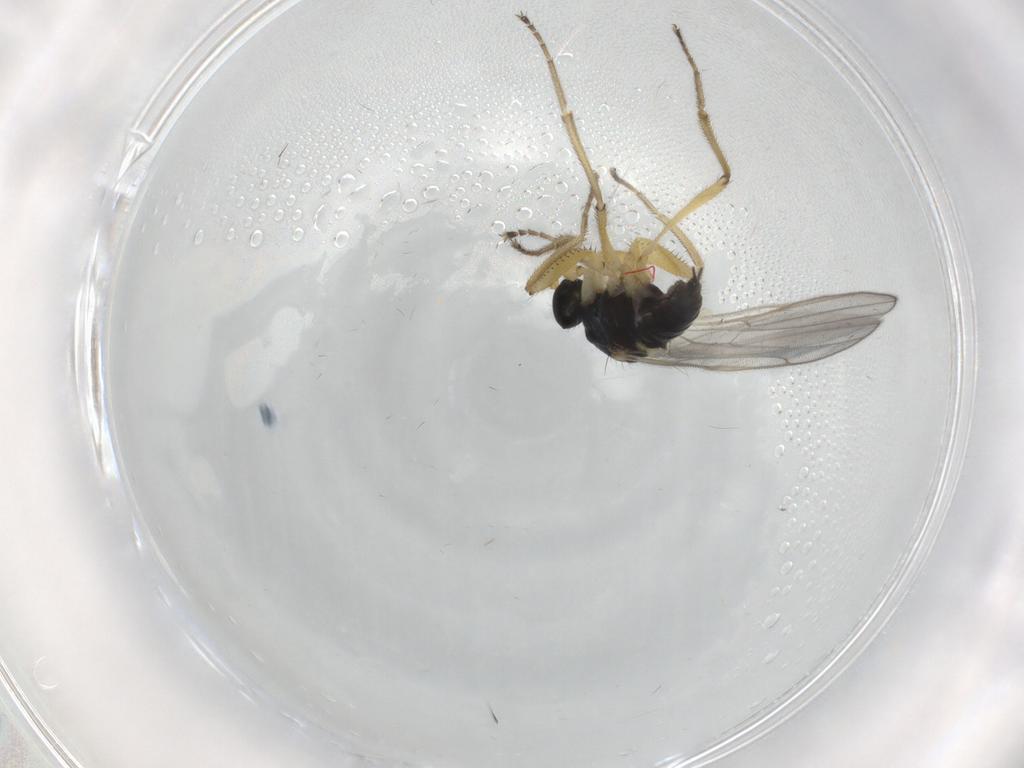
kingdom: Animalia
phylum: Arthropoda
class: Insecta
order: Diptera
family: Hybotidae
